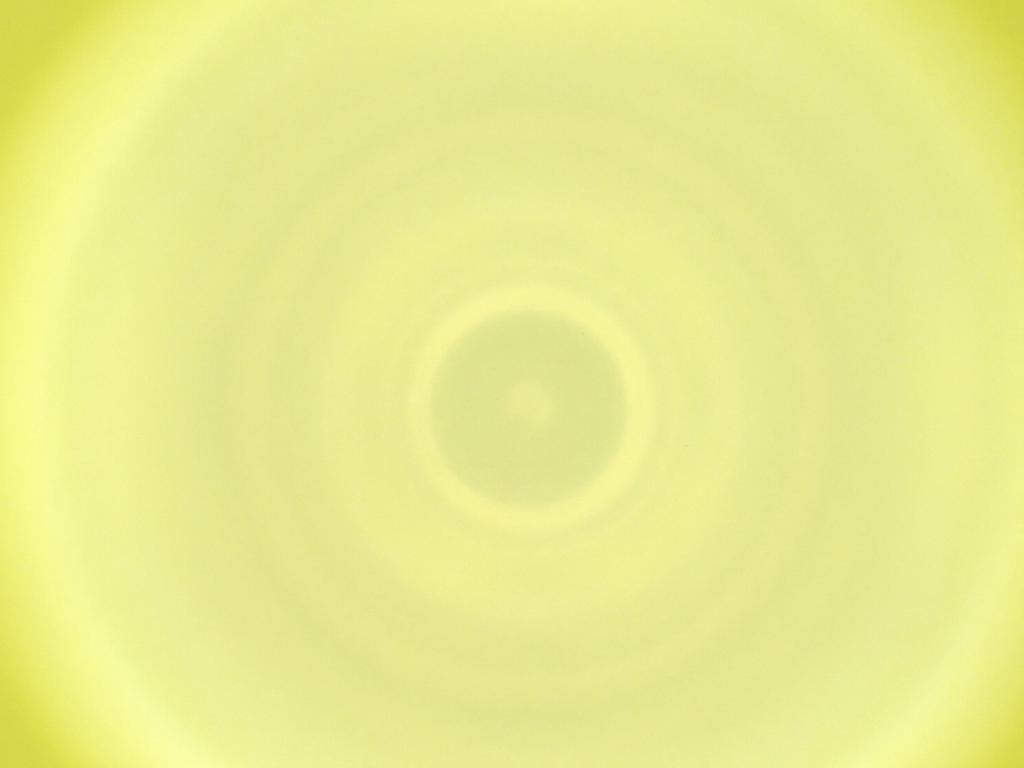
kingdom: Animalia
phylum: Arthropoda
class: Insecta
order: Diptera
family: Cecidomyiidae
